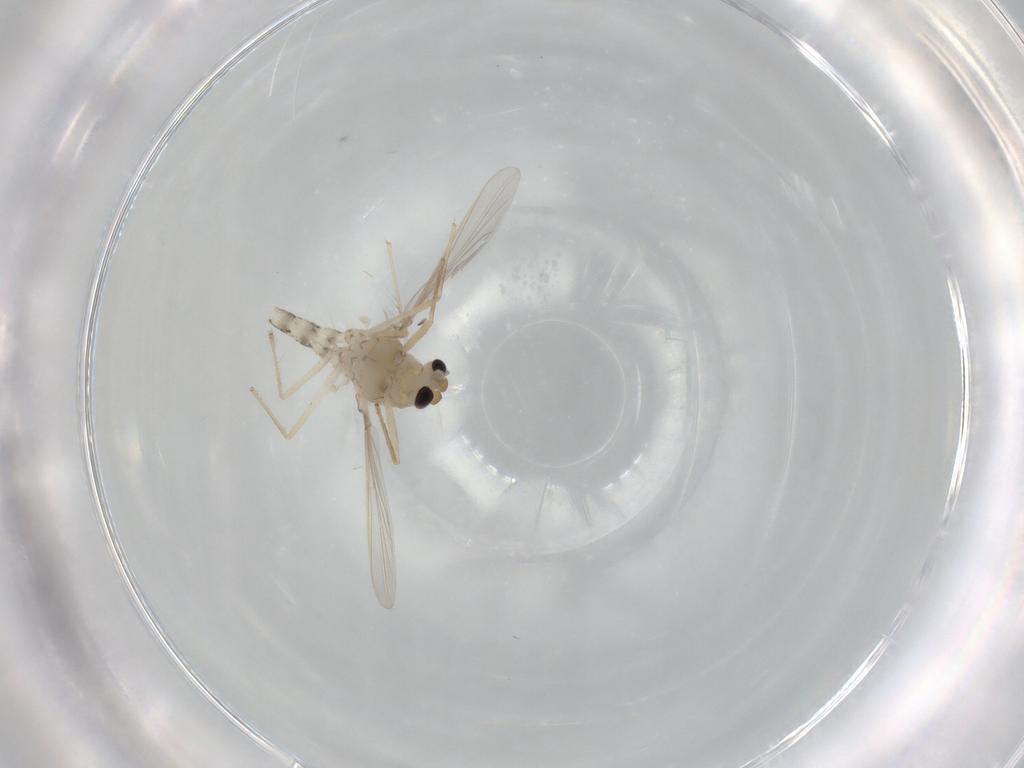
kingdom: Animalia
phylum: Arthropoda
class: Insecta
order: Diptera
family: Chironomidae
